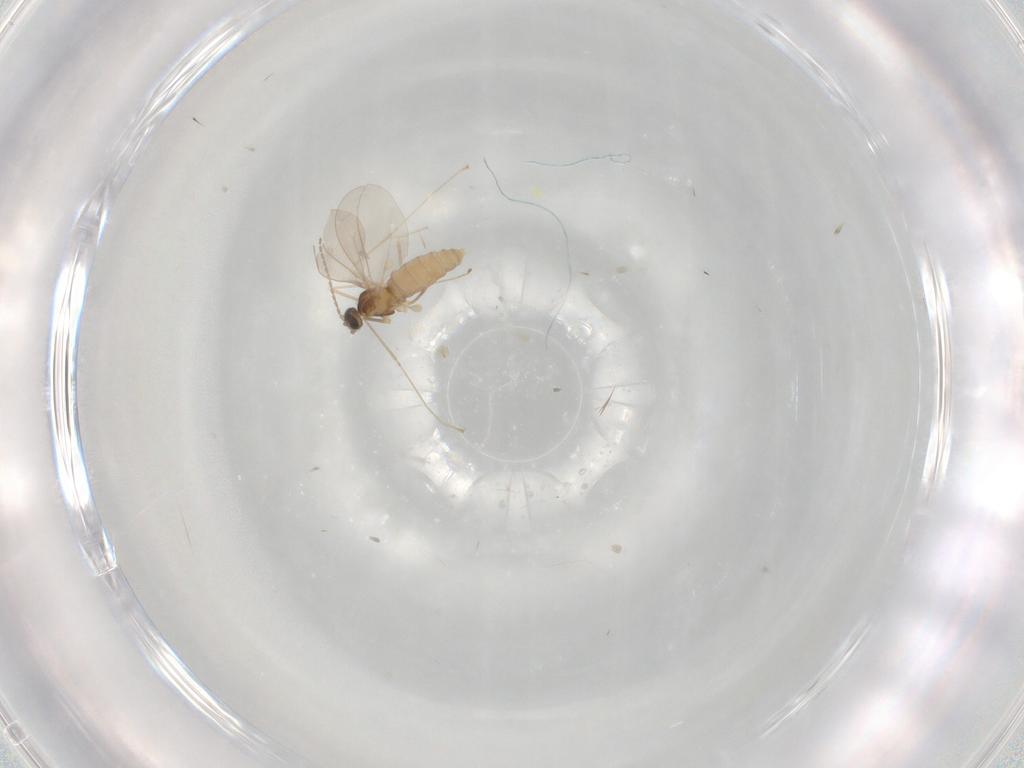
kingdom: Animalia
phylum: Arthropoda
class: Insecta
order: Diptera
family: Cecidomyiidae
